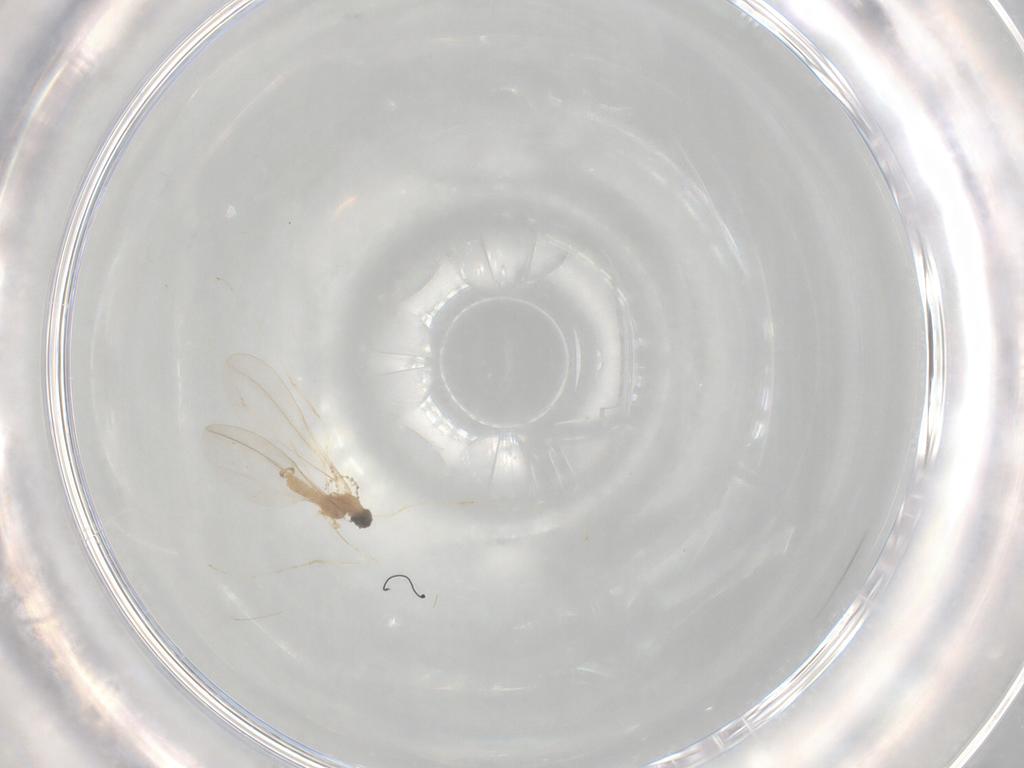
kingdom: Animalia
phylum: Arthropoda
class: Insecta
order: Diptera
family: Cecidomyiidae
